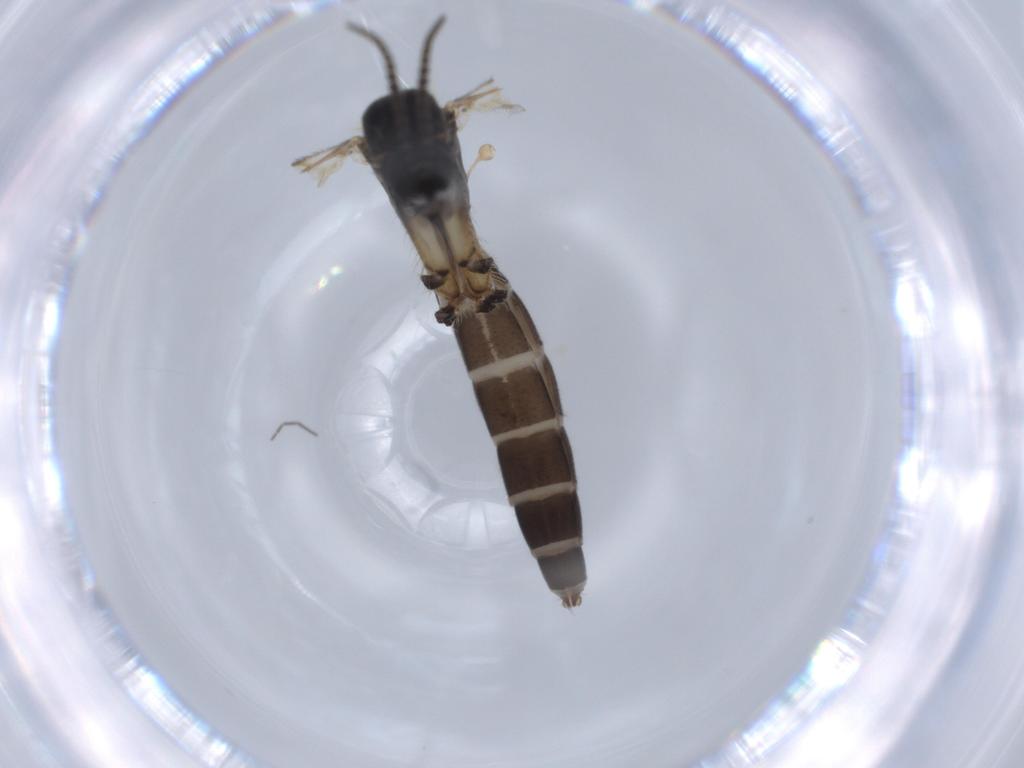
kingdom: Animalia
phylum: Arthropoda
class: Insecta
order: Diptera
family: Mycetophilidae
